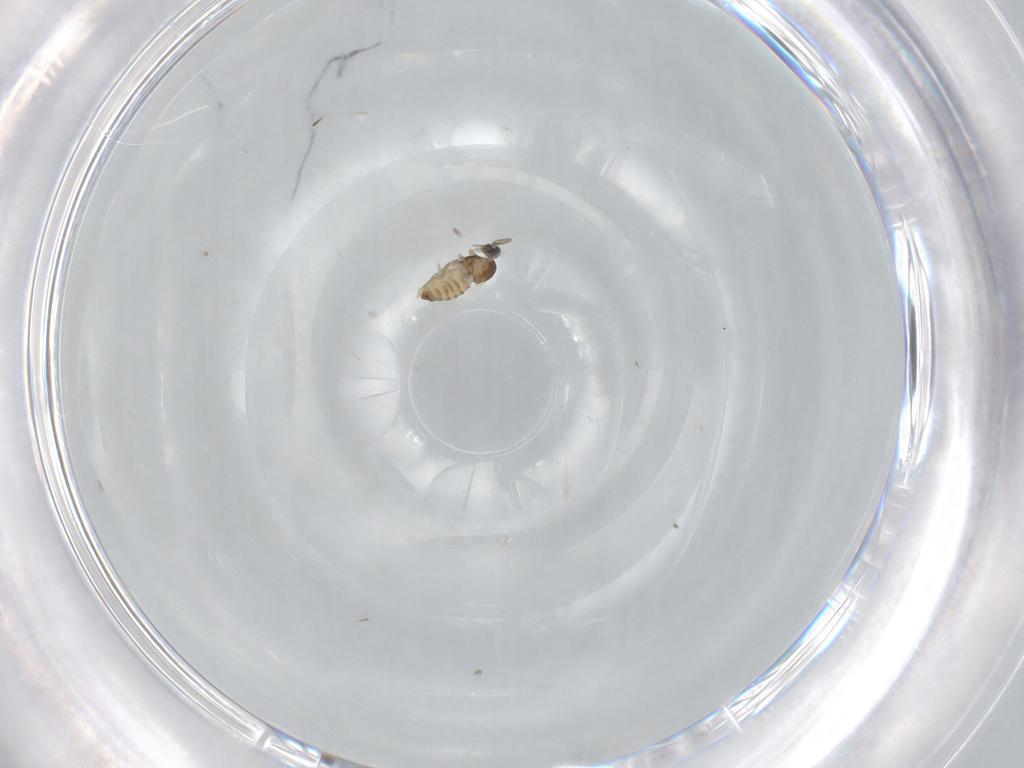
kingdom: Animalia
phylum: Arthropoda
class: Insecta
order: Diptera
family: Cecidomyiidae
